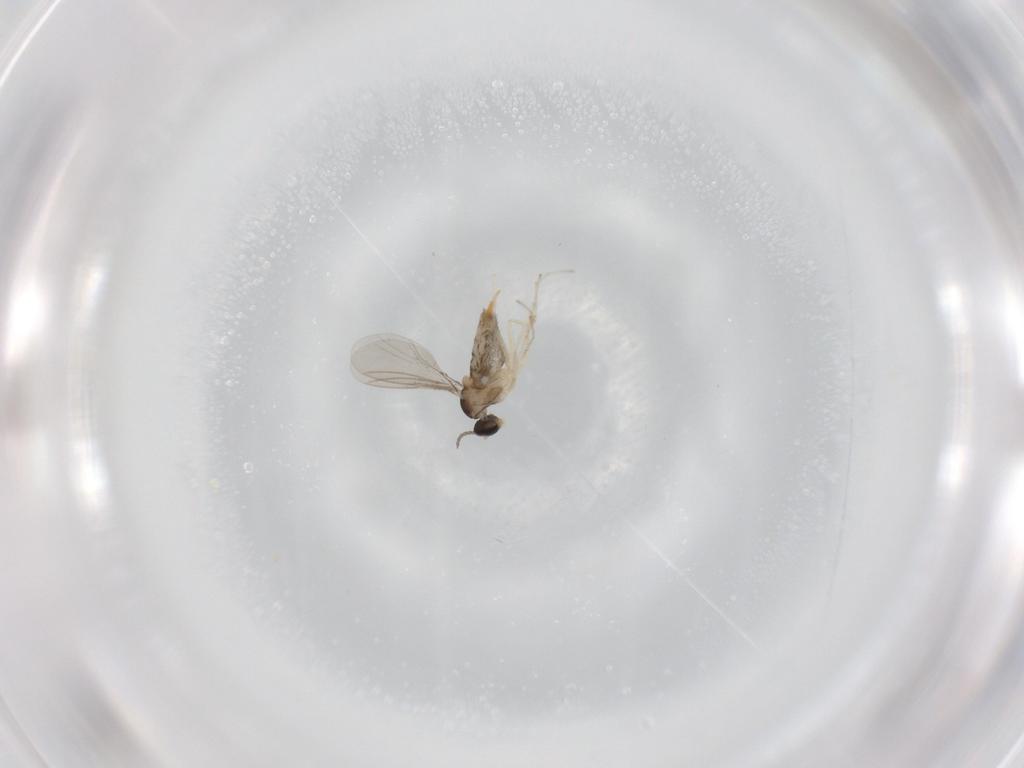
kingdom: Animalia
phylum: Arthropoda
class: Insecta
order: Diptera
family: Cecidomyiidae
